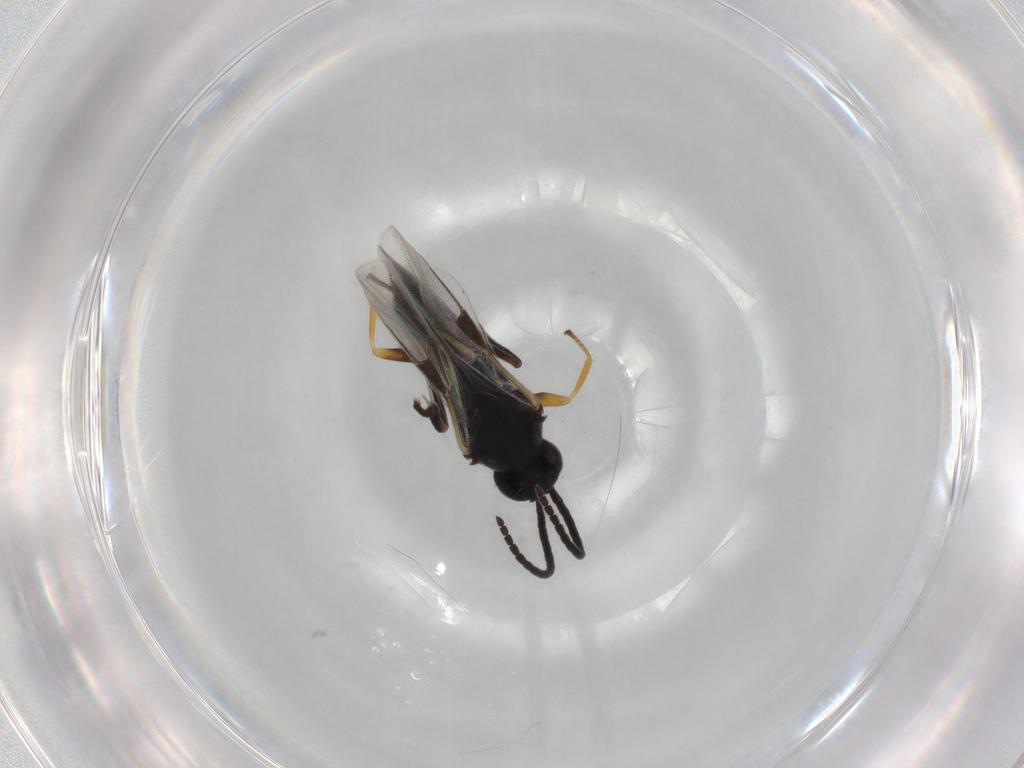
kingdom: Animalia
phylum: Arthropoda
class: Insecta
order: Hymenoptera
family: Braconidae
